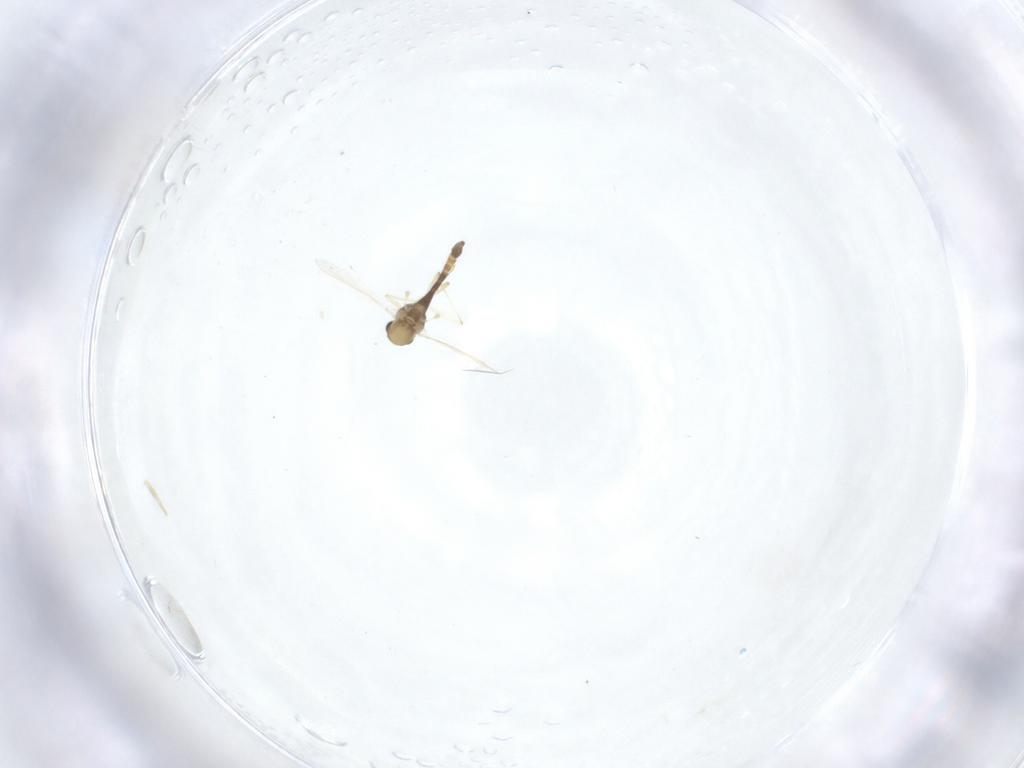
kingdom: Animalia
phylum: Arthropoda
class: Insecta
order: Diptera
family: Chironomidae
